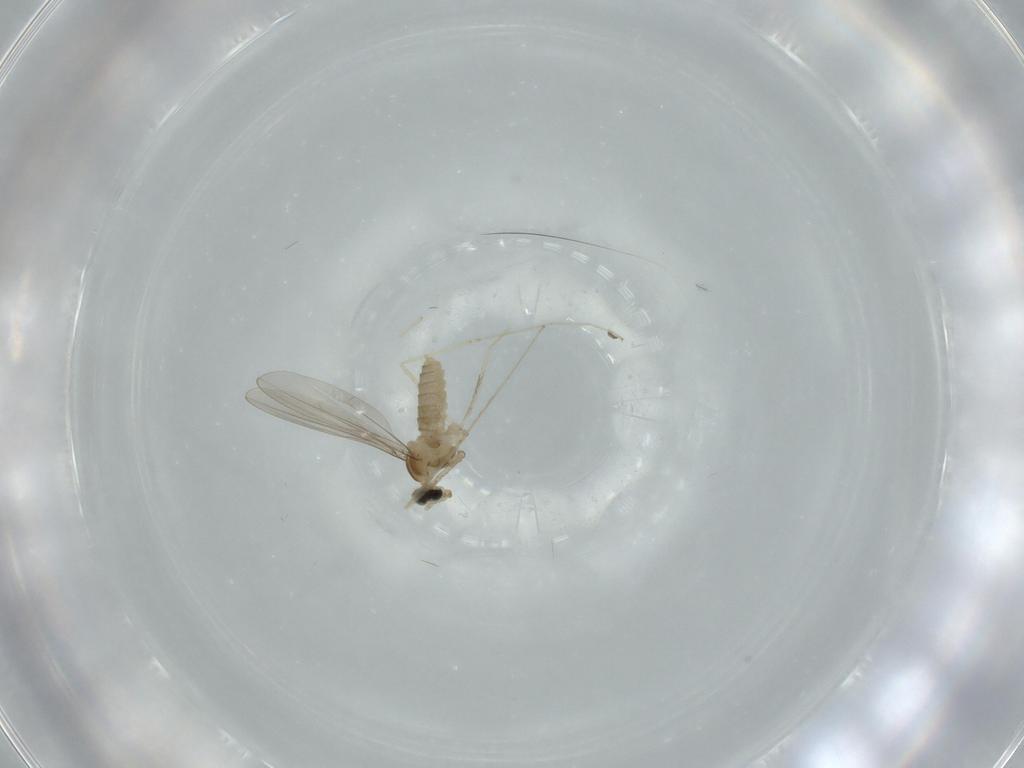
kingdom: Animalia
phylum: Arthropoda
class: Insecta
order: Diptera
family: Cecidomyiidae
